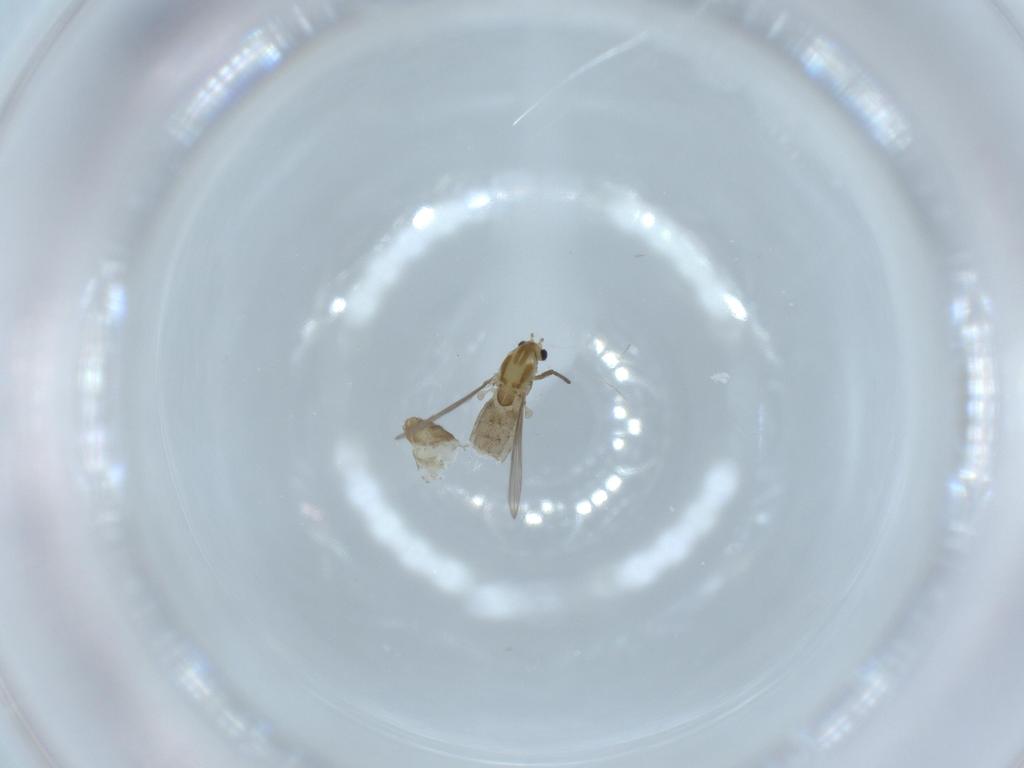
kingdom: Animalia
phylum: Arthropoda
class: Insecta
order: Diptera
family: Chironomidae
